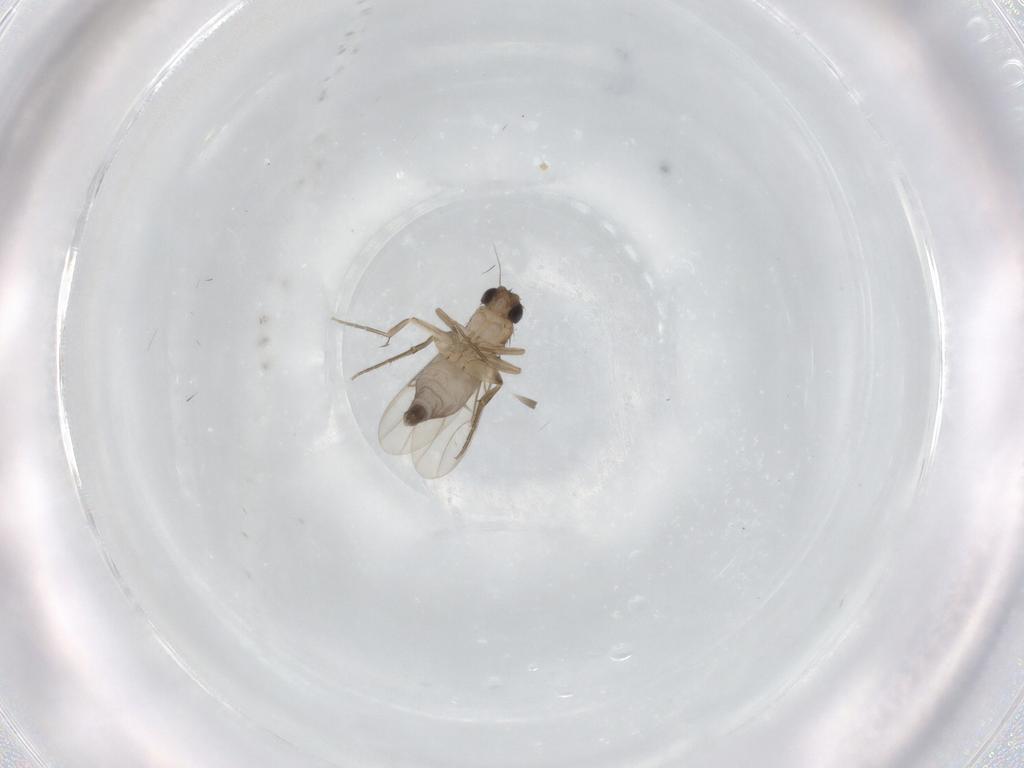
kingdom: Animalia
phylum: Arthropoda
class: Insecta
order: Diptera
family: Phoridae
